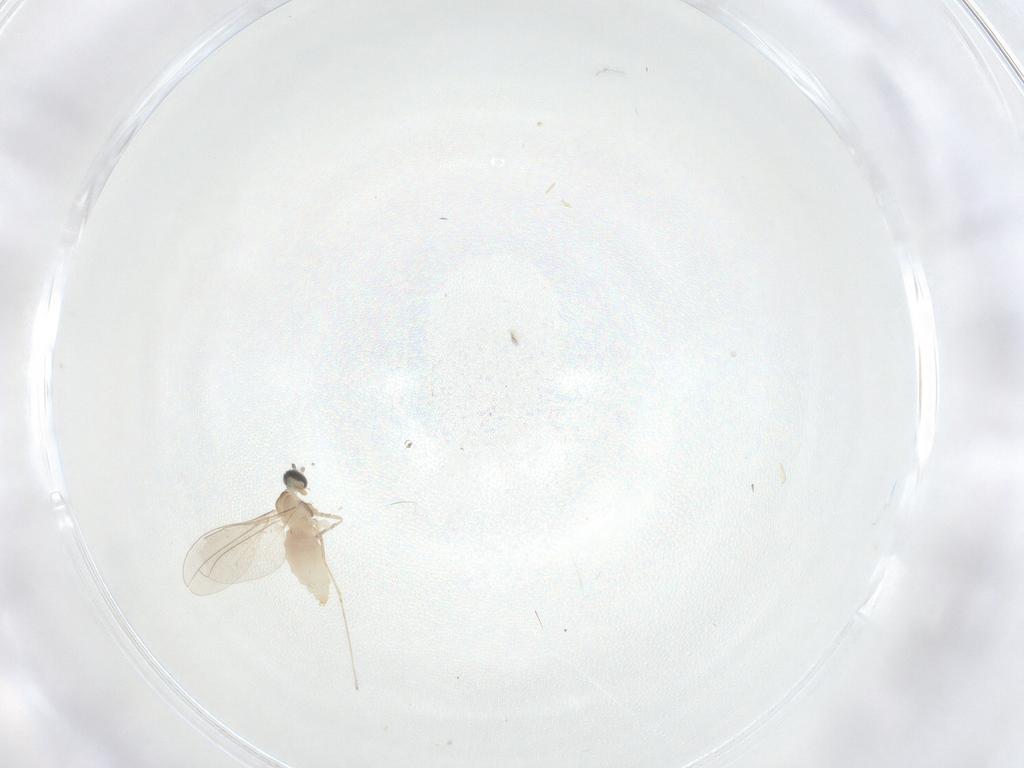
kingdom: Animalia
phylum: Arthropoda
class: Insecta
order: Diptera
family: Cecidomyiidae
